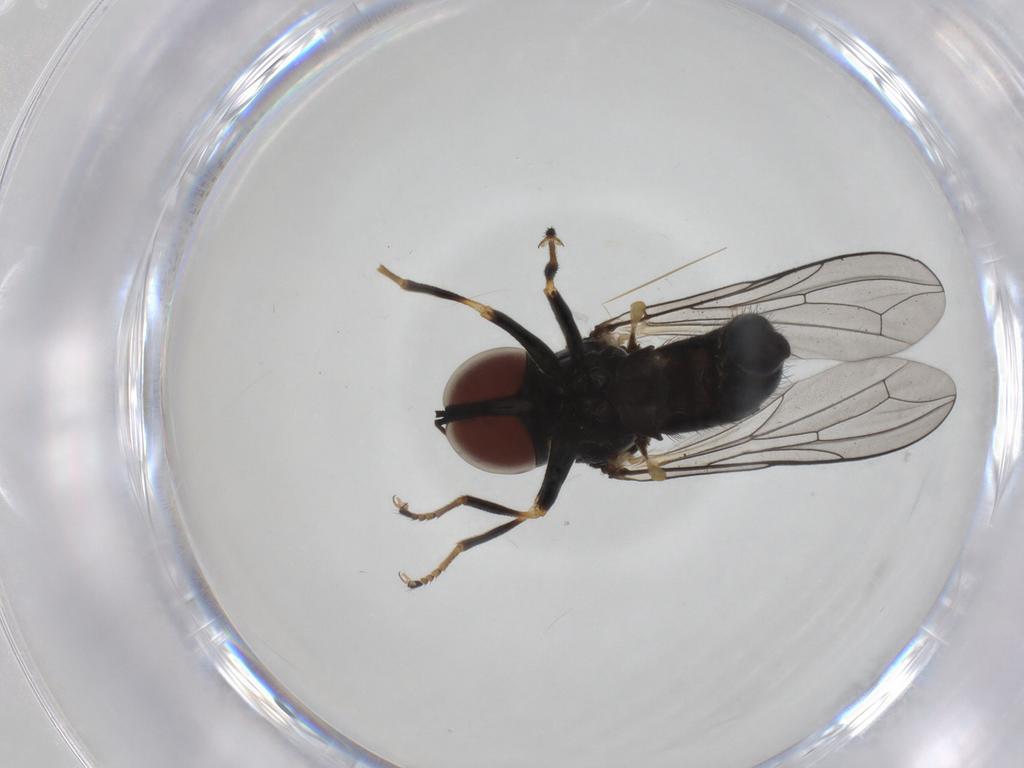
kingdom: Animalia
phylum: Arthropoda
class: Insecta
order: Diptera
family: Pipunculidae
